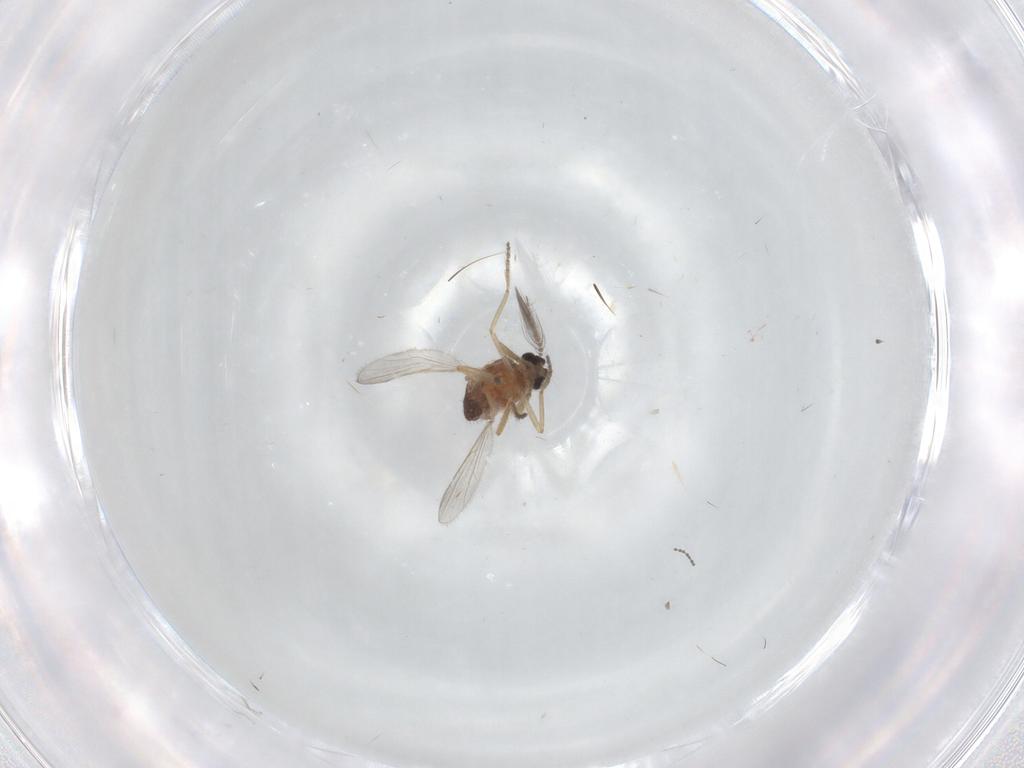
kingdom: Animalia
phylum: Arthropoda
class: Insecta
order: Diptera
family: Ceratopogonidae
